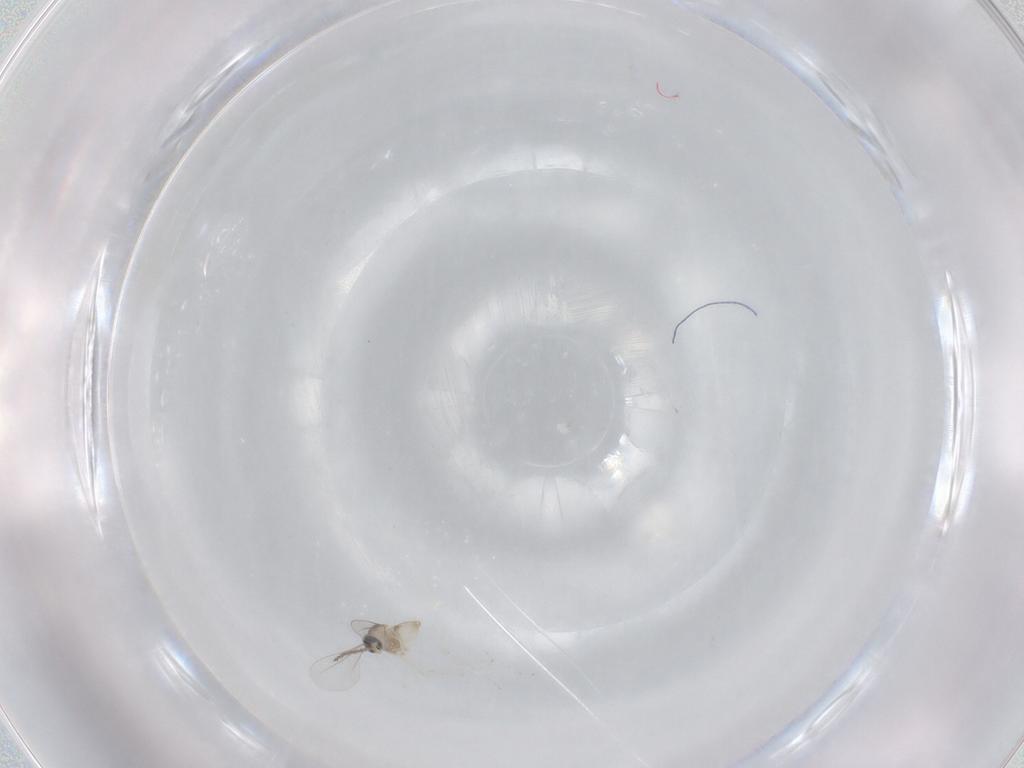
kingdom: Animalia
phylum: Arthropoda
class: Insecta
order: Diptera
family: Cecidomyiidae
